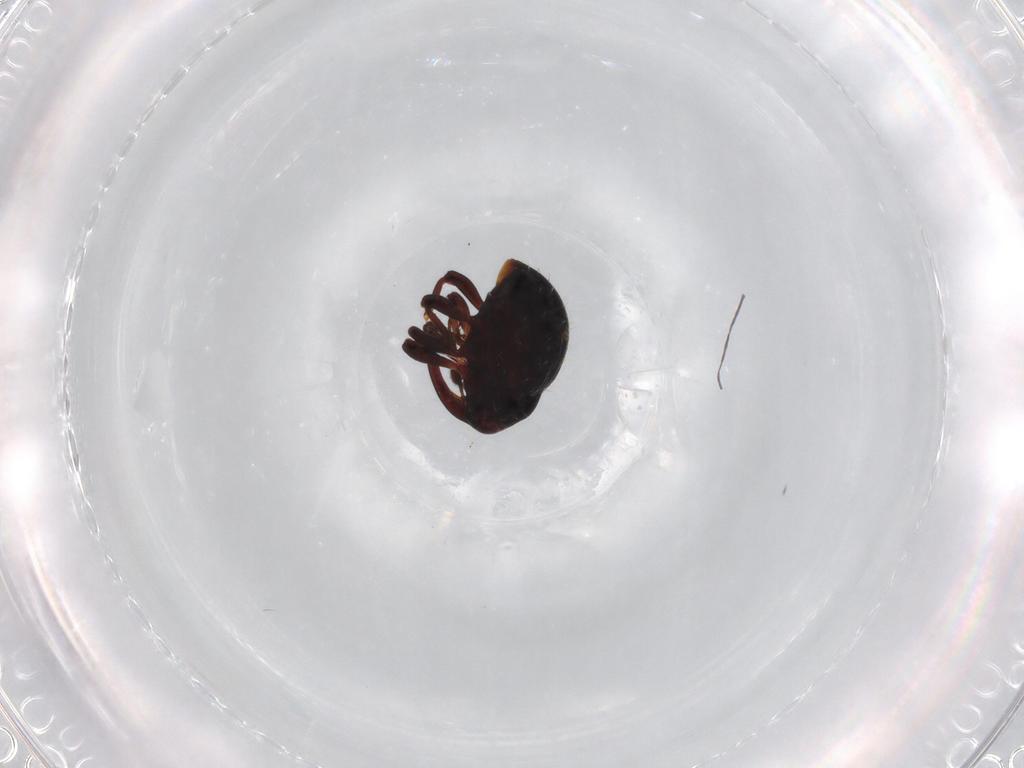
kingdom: Animalia
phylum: Arthropoda
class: Insecta
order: Coleoptera
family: Curculionidae
